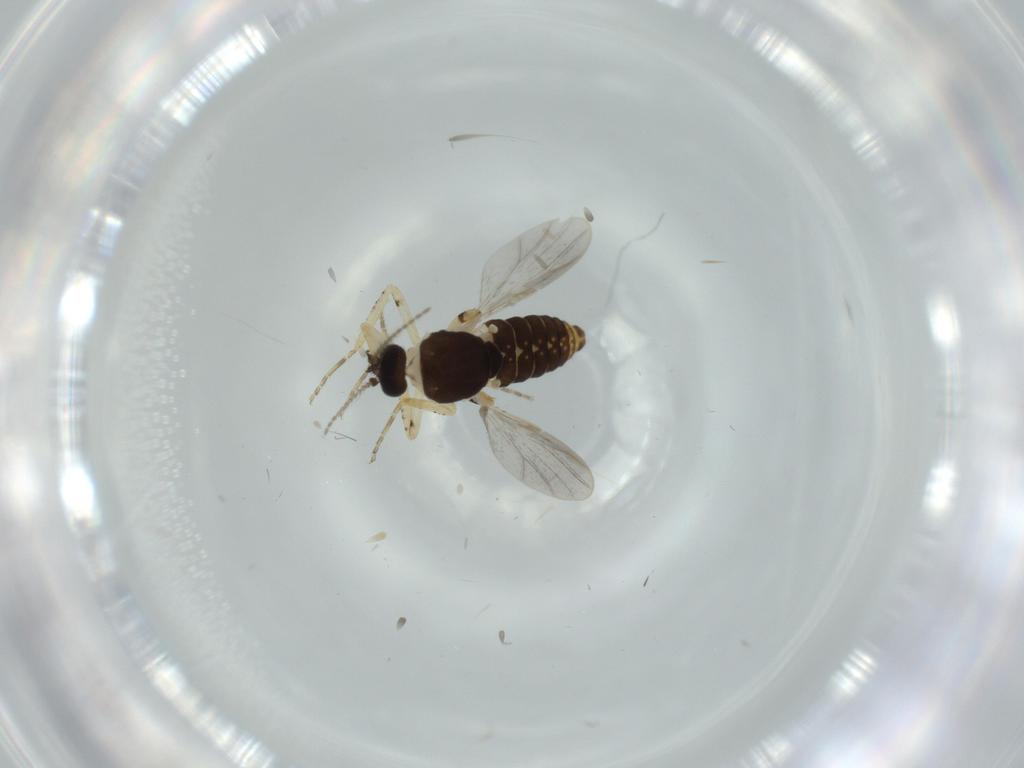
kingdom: Animalia
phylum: Arthropoda
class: Insecta
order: Diptera
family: Ceratopogonidae
